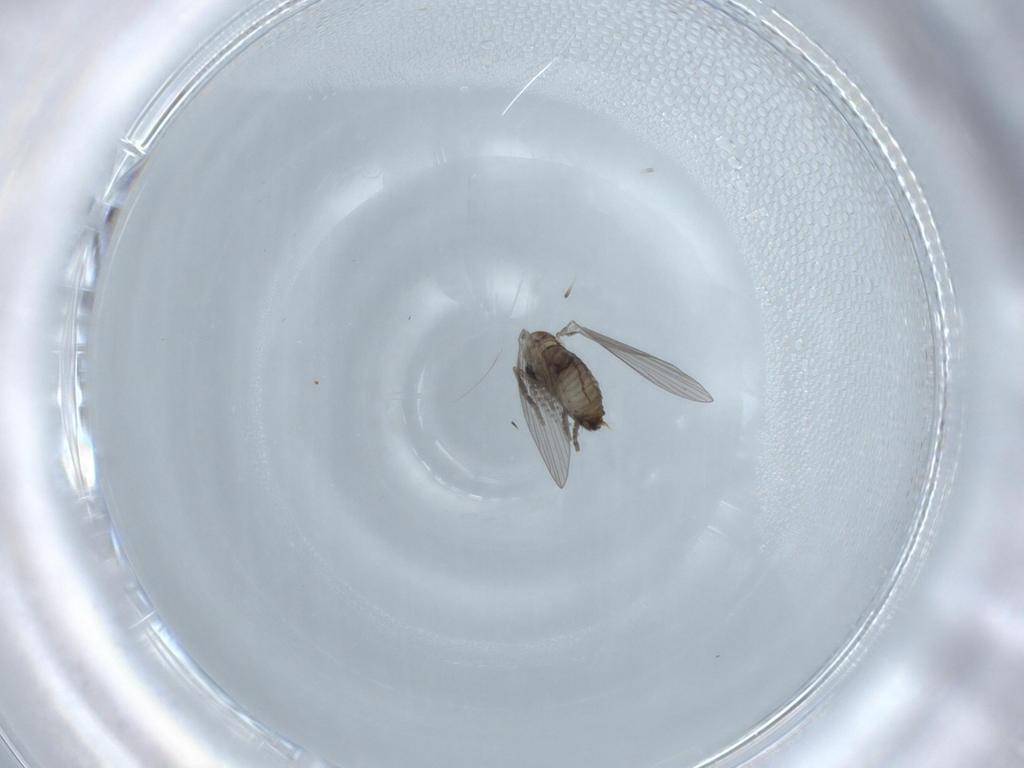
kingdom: Animalia
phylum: Arthropoda
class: Insecta
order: Diptera
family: Psychodidae
